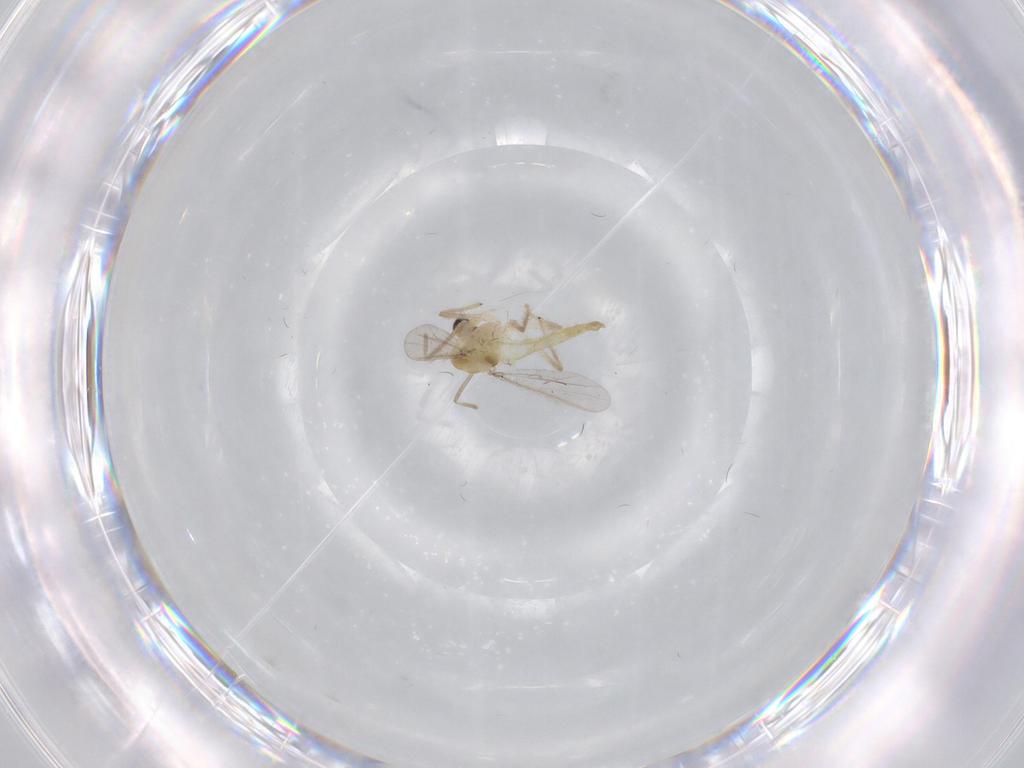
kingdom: Animalia
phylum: Arthropoda
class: Insecta
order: Diptera
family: Chironomidae
